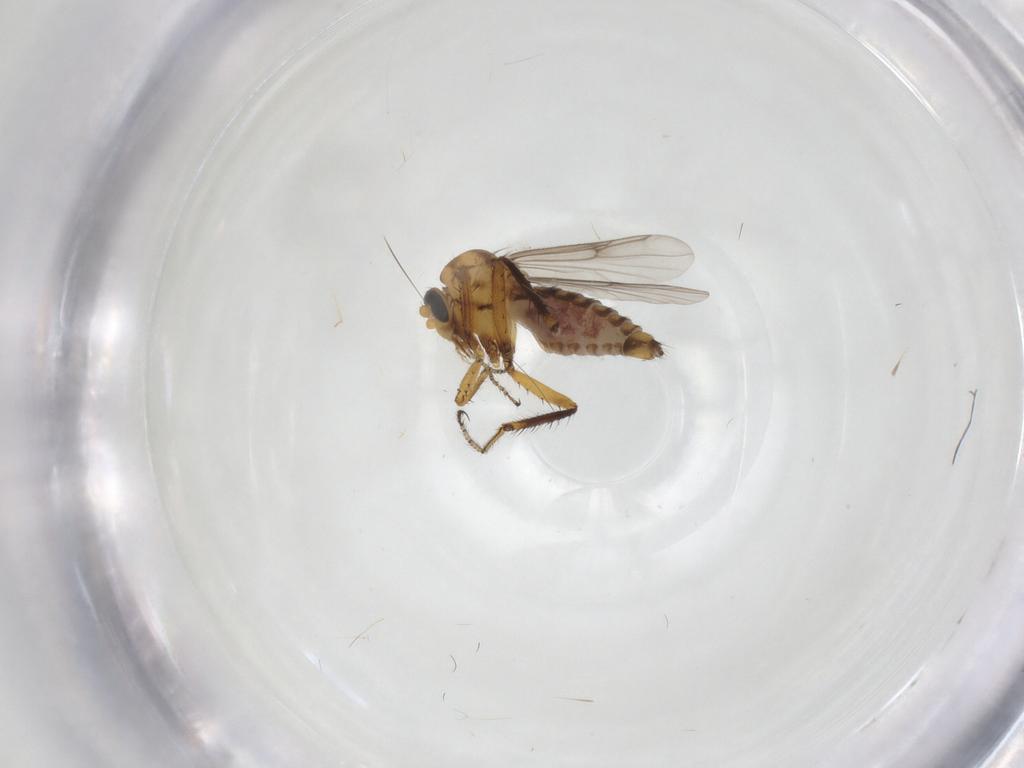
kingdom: Animalia
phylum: Arthropoda
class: Insecta
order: Diptera
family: Ceratopogonidae
